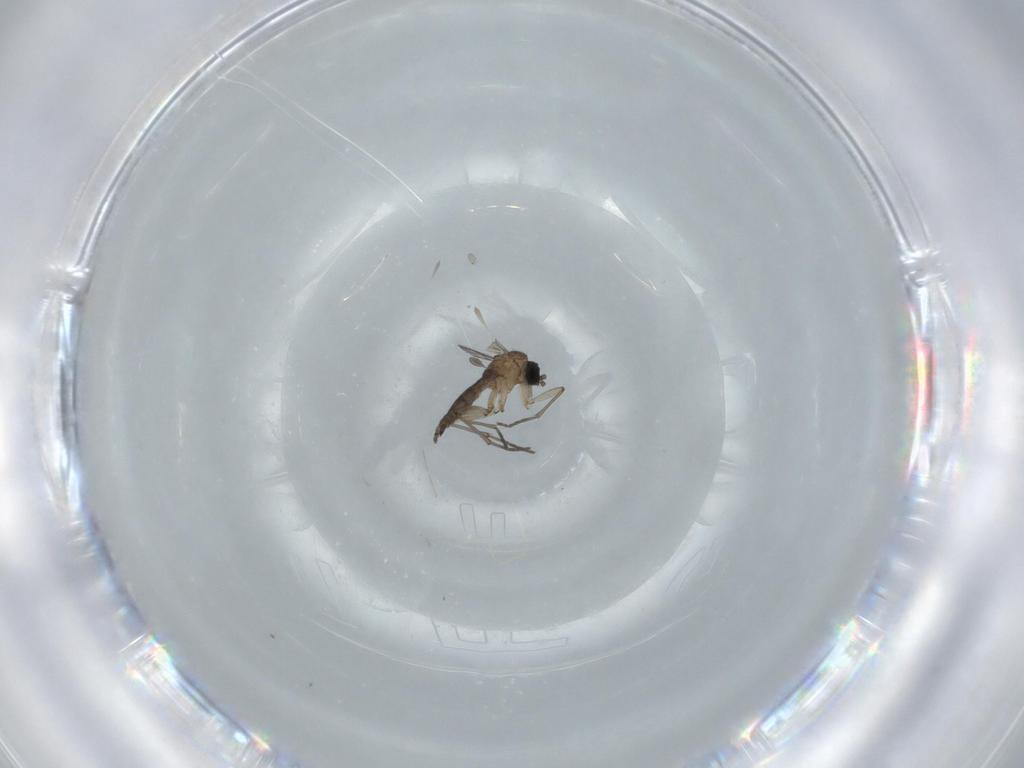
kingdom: Animalia
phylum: Arthropoda
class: Insecta
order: Diptera
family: Sciaridae
